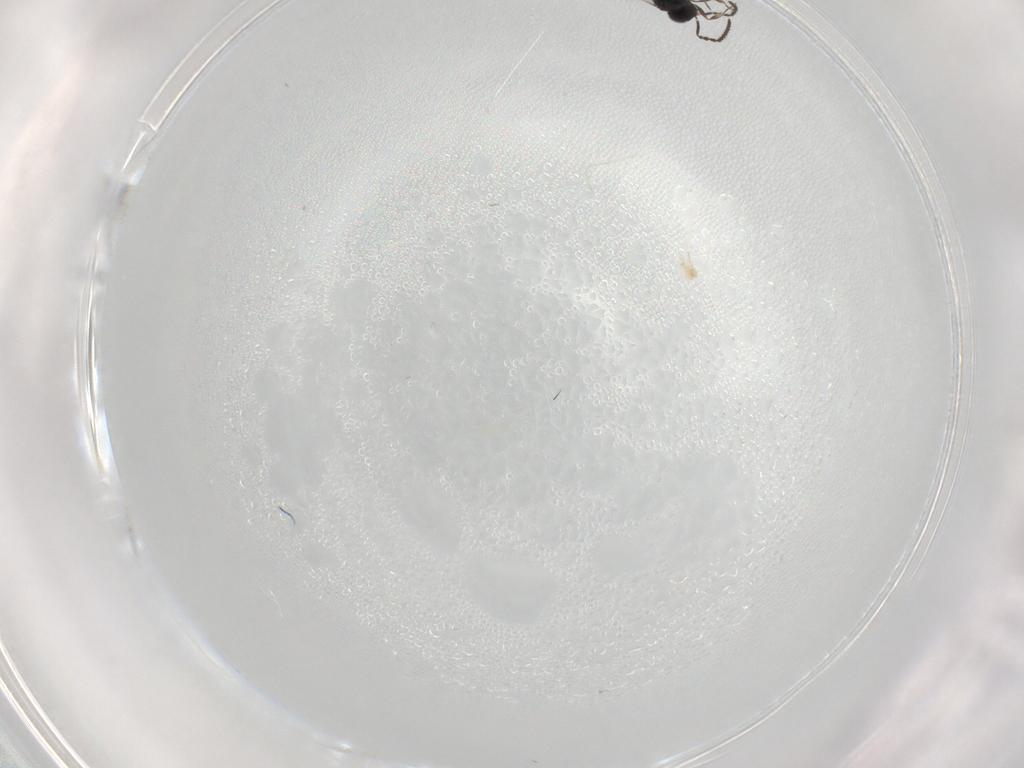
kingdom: Animalia
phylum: Arthropoda
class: Insecta
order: Hymenoptera
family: Scelionidae
